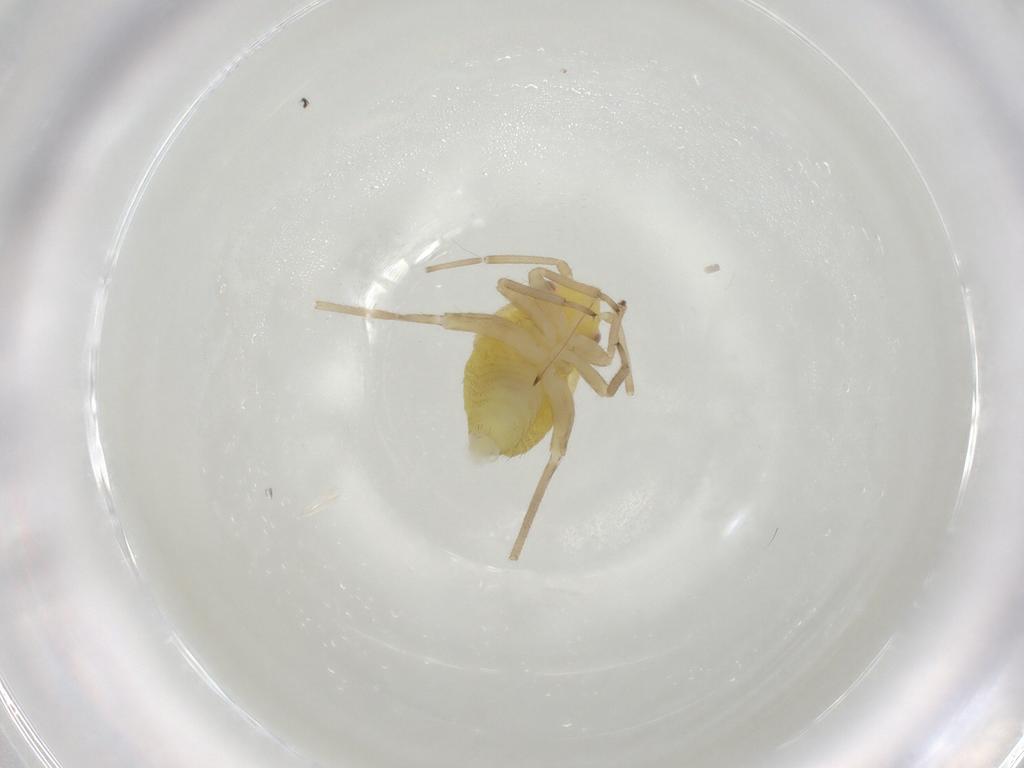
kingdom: Animalia
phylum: Arthropoda
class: Insecta
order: Hemiptera
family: Miridae
